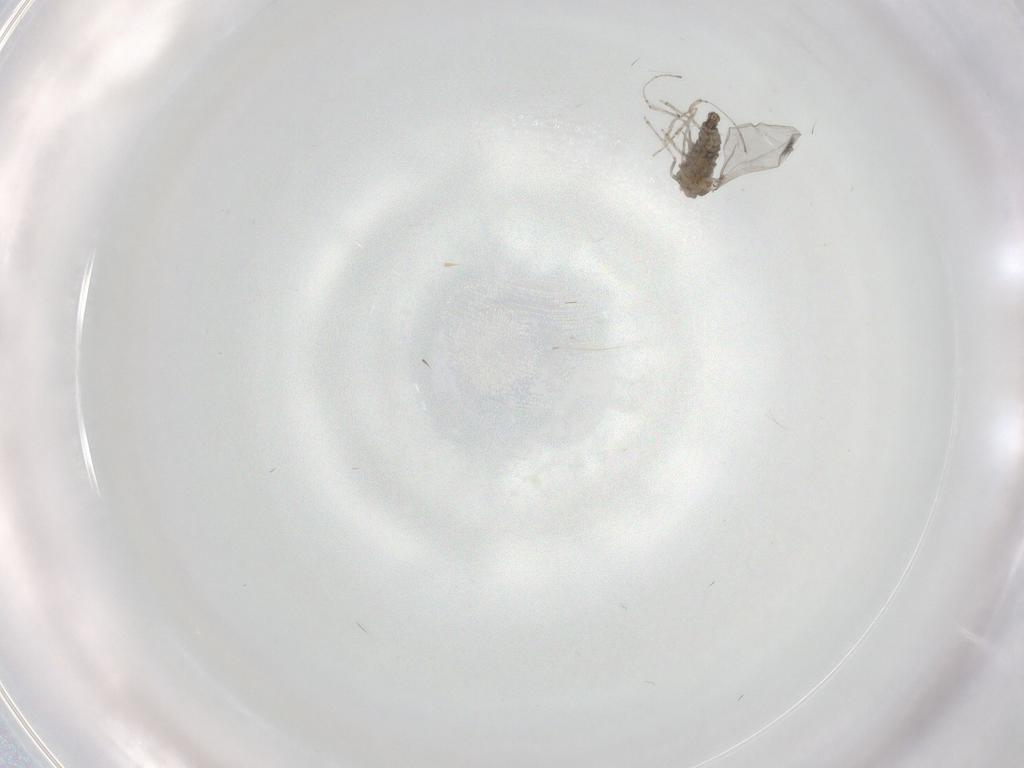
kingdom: Animalia
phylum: Arthropoda
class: Insecta
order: Diptera
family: Cecidomyiidae
